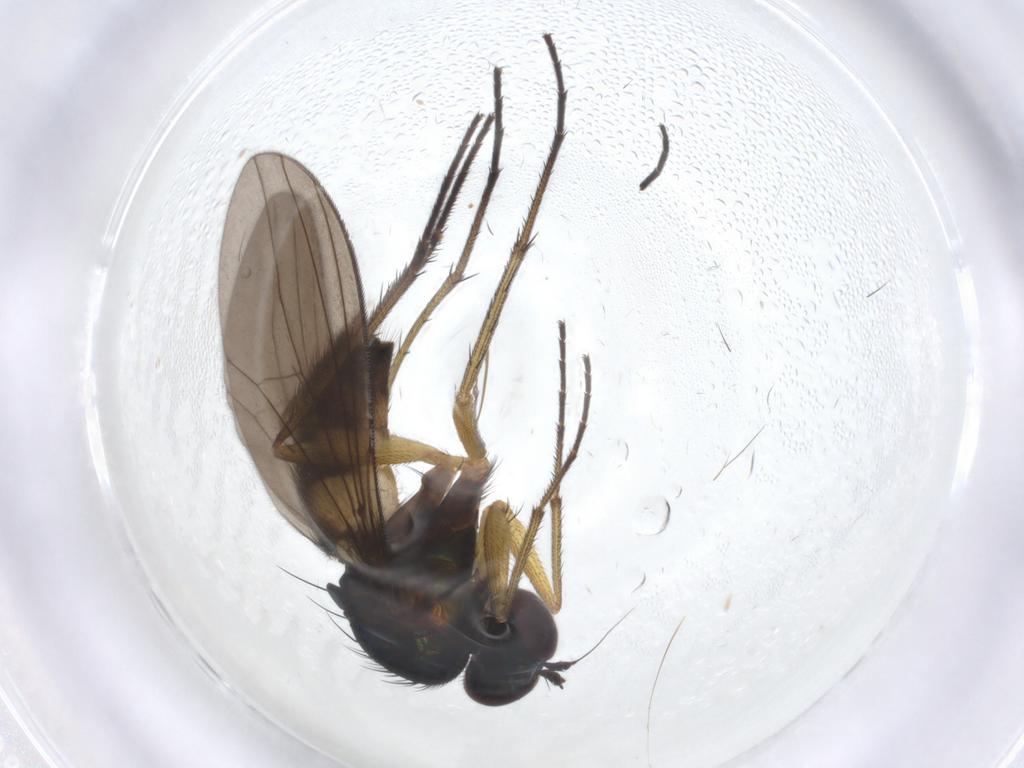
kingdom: Animalia
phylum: Arthropoda
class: Insecta
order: Diptera
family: Dolichopodidae
